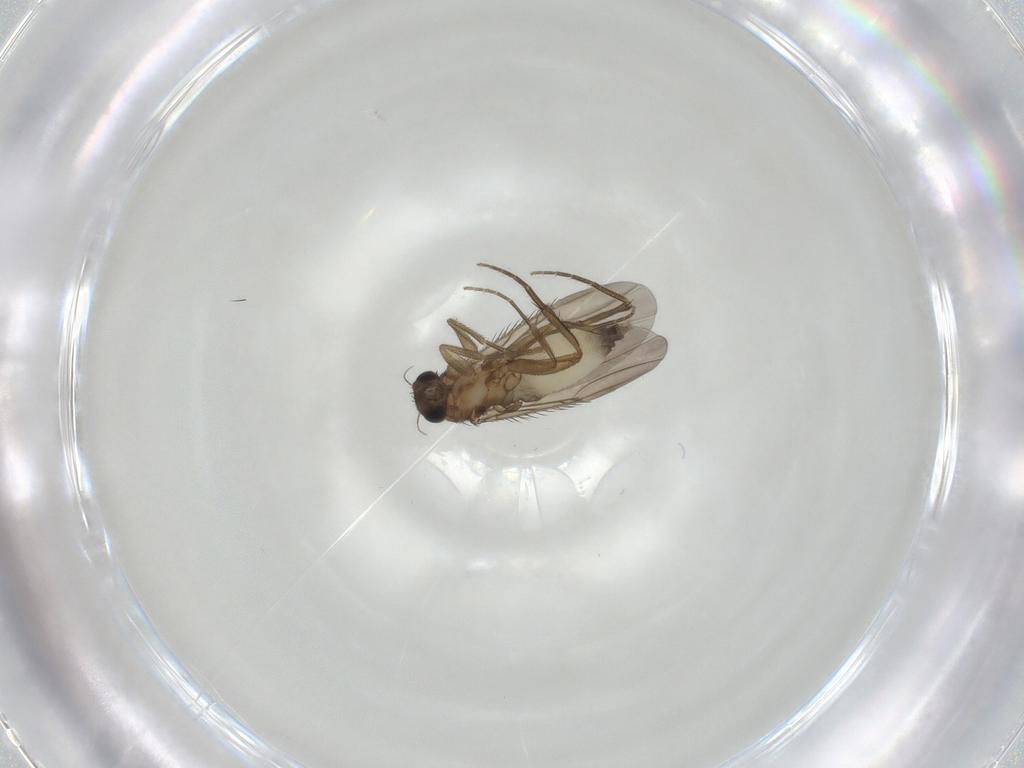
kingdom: Animalia
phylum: Arthropoda
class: Insecta
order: Diptera
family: Phoridae
